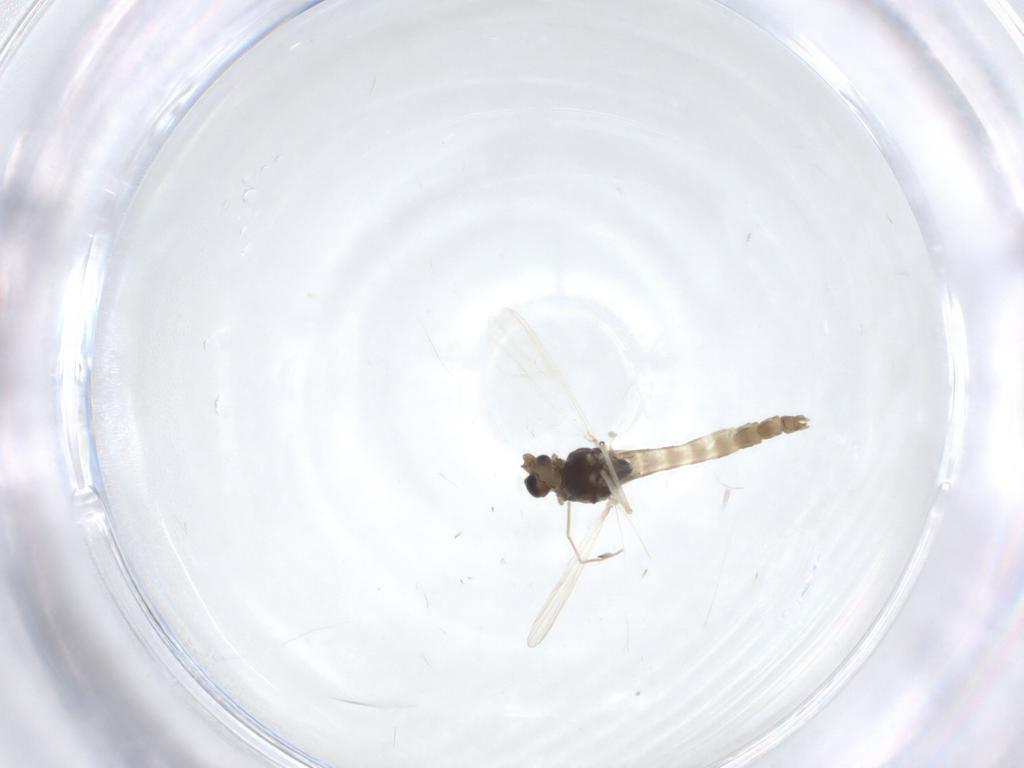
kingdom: Animalia
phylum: Arthropoda
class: Insecta
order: Diptera
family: Chironomidae
